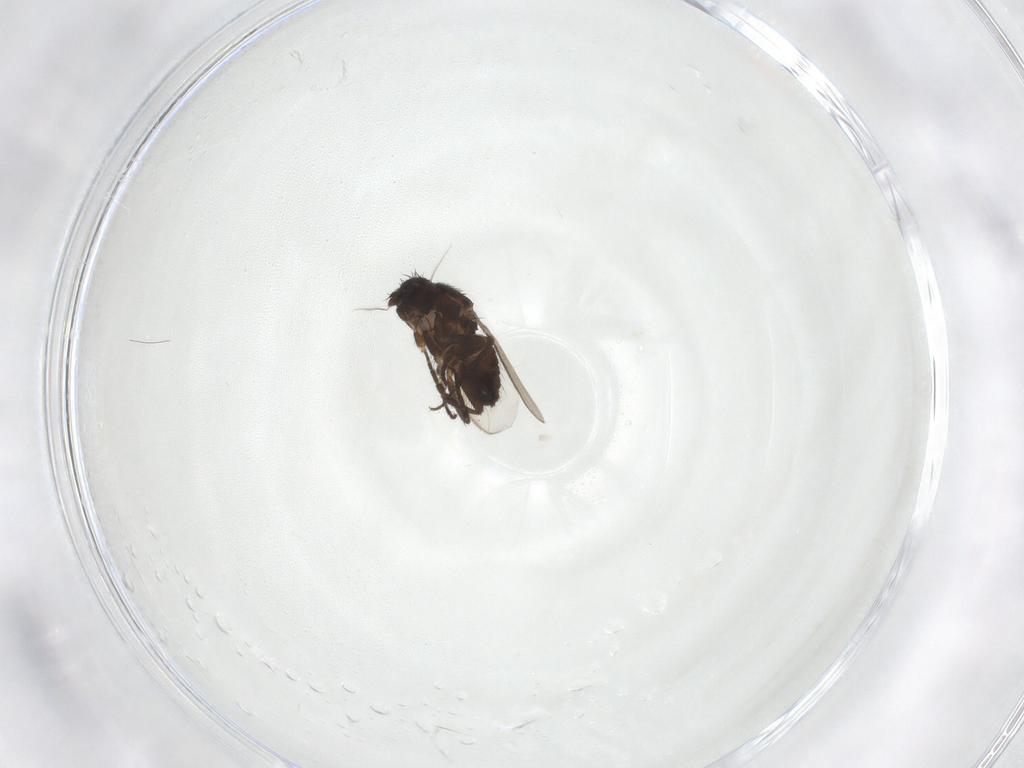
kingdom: Animalia
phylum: Arthropoda
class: Insecta
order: Diptera
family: Sphaeroceridae
